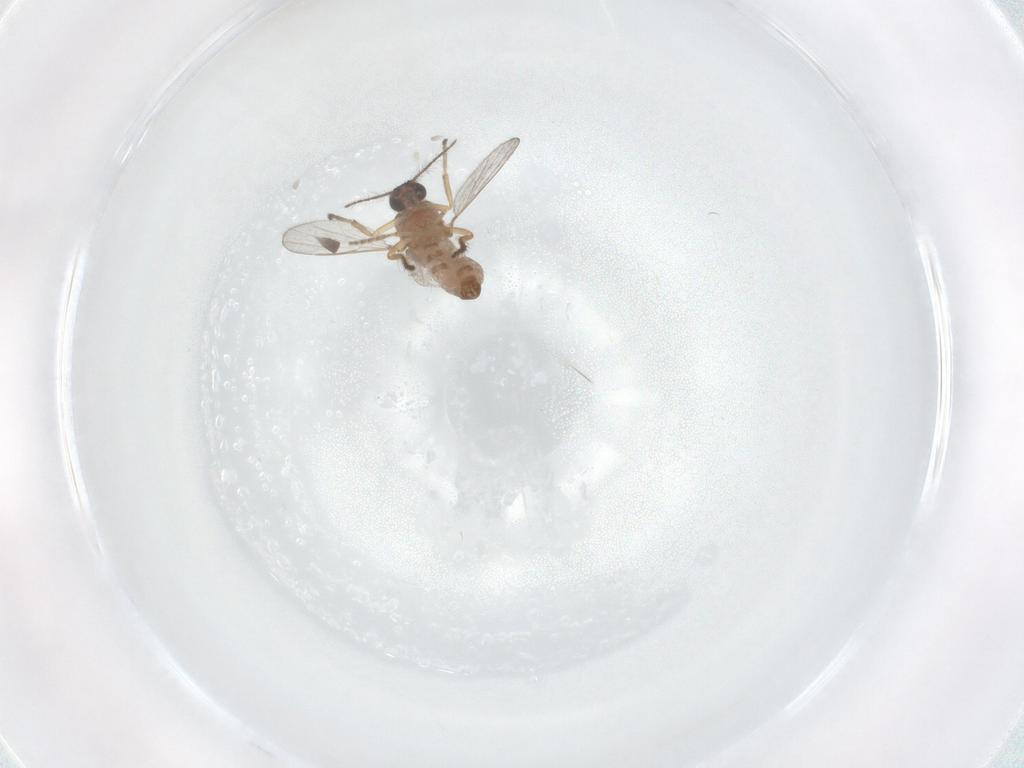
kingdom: Animalia
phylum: Arthropoda
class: Insecta
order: Diptera
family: Ceratopogonidae
